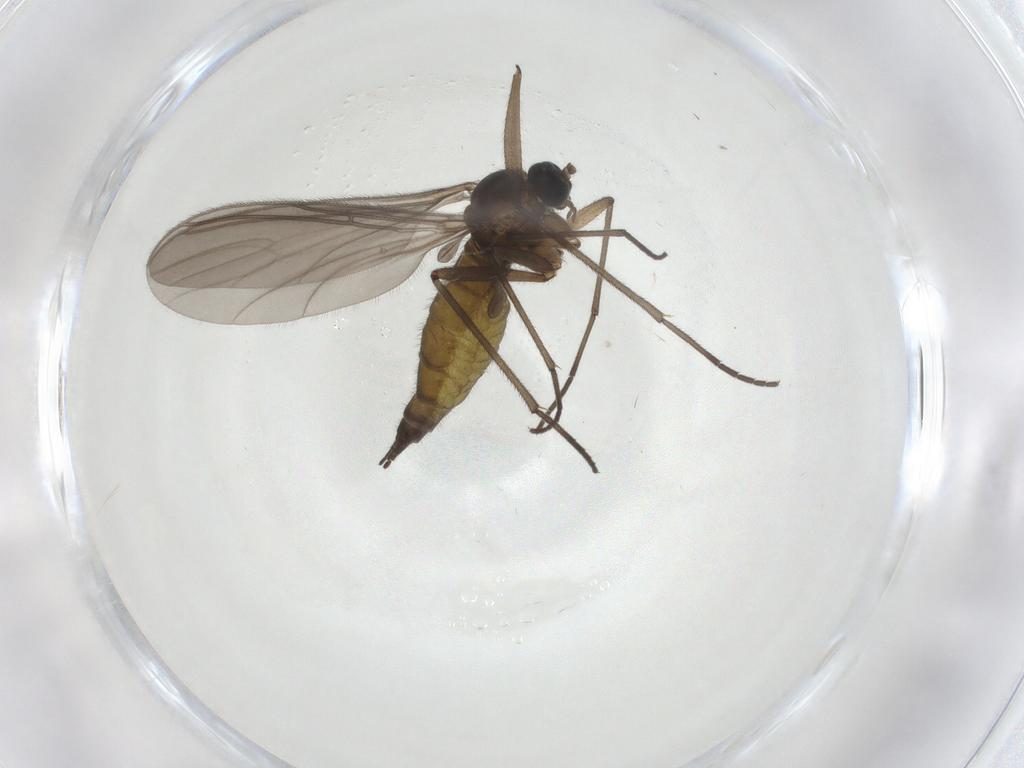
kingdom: Animalia
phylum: Arthropoda
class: Insecta
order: Diptera
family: Sciaridae
